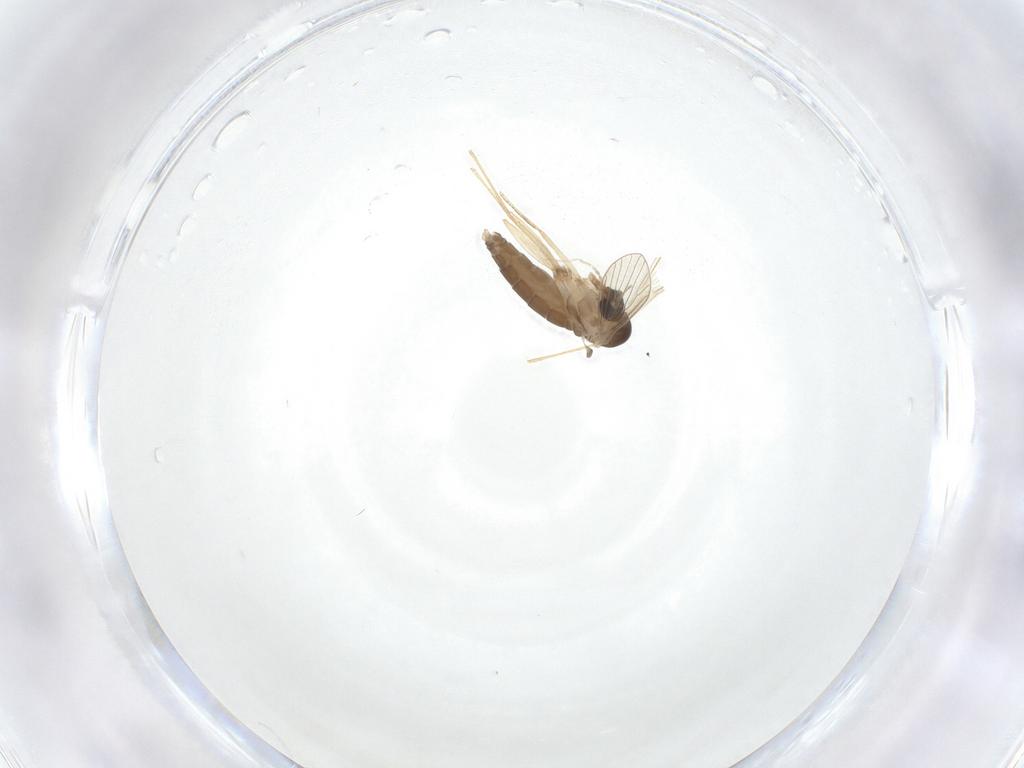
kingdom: Animalia
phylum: Arthropoda
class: Insecta
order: Diptera
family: Psychodidae
